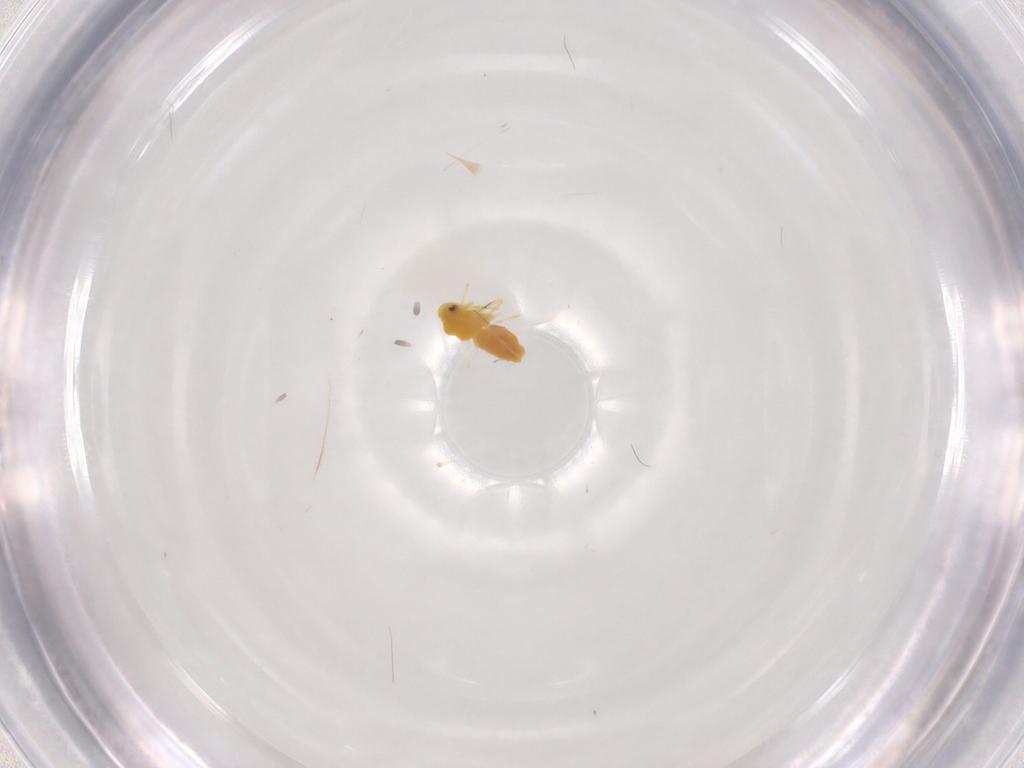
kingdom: Animalia
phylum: Arthropoda
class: Insecta
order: Hemiptera
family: Aleyrodidae
